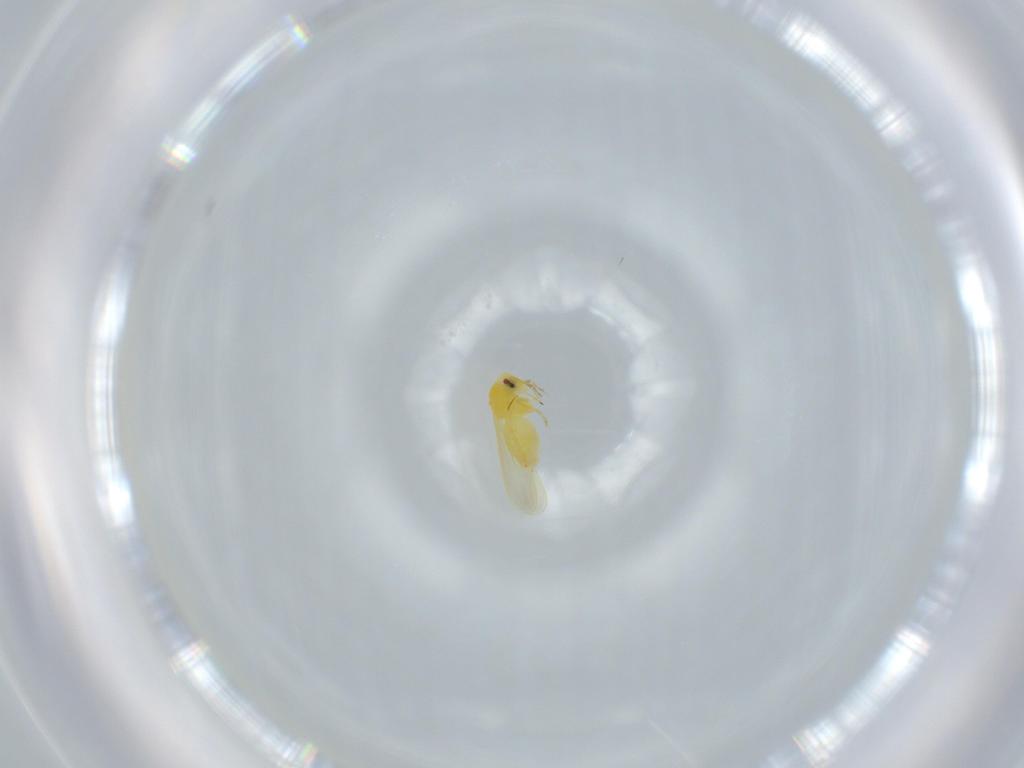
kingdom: Animalia
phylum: Arthropoda
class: Insecta
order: Hemiptera
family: Aleyrodidae
